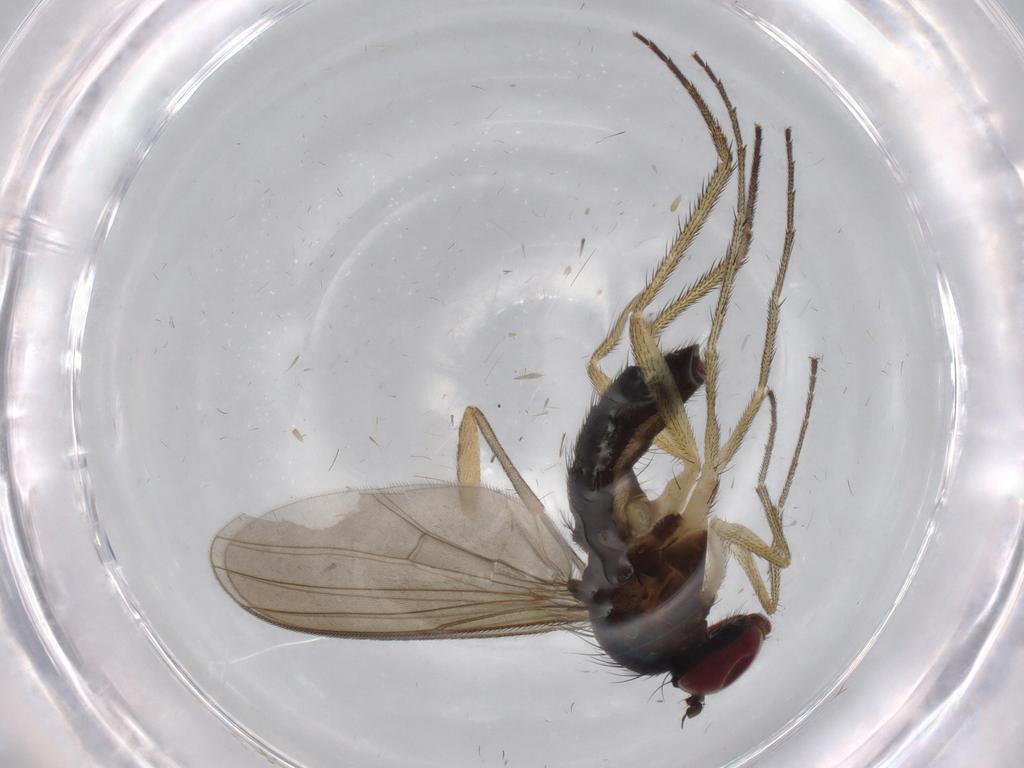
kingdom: Animalia
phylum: Arthropoda
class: Insecta
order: Diptera
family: Mycetophilidae
